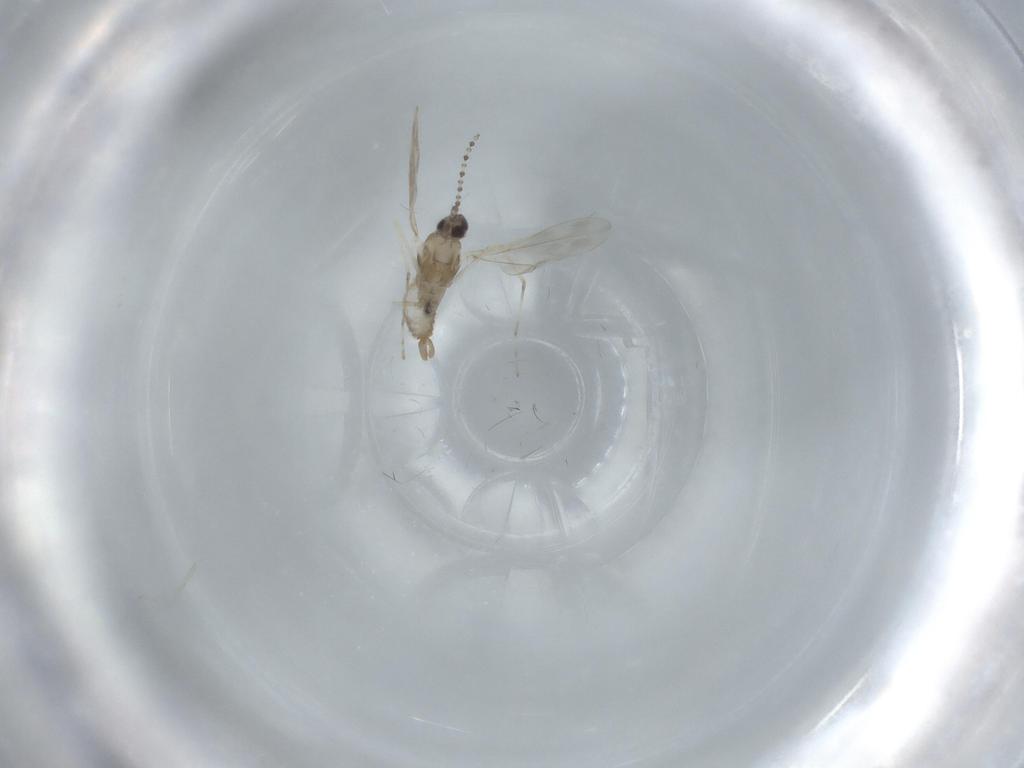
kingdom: Animalia
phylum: Arthropoda
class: Insecta
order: Diptera
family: Cecidomyiidae
